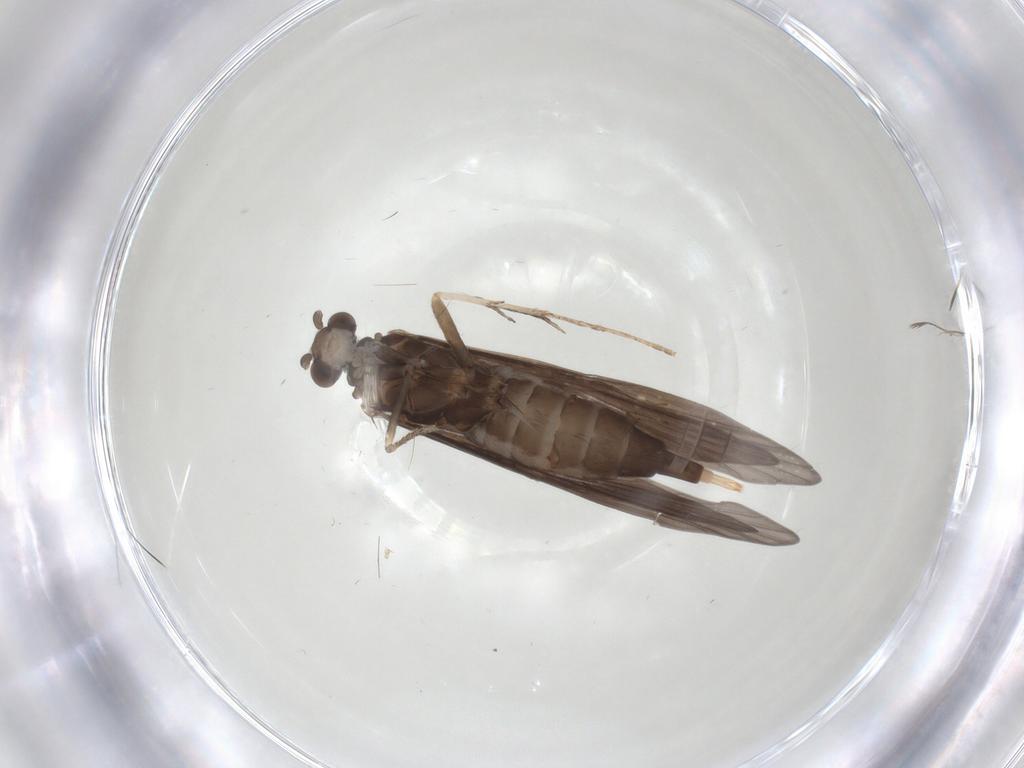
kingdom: Animalia
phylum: Arthropoda
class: Insecta
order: Trichoptera
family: Xiphocentronidae
